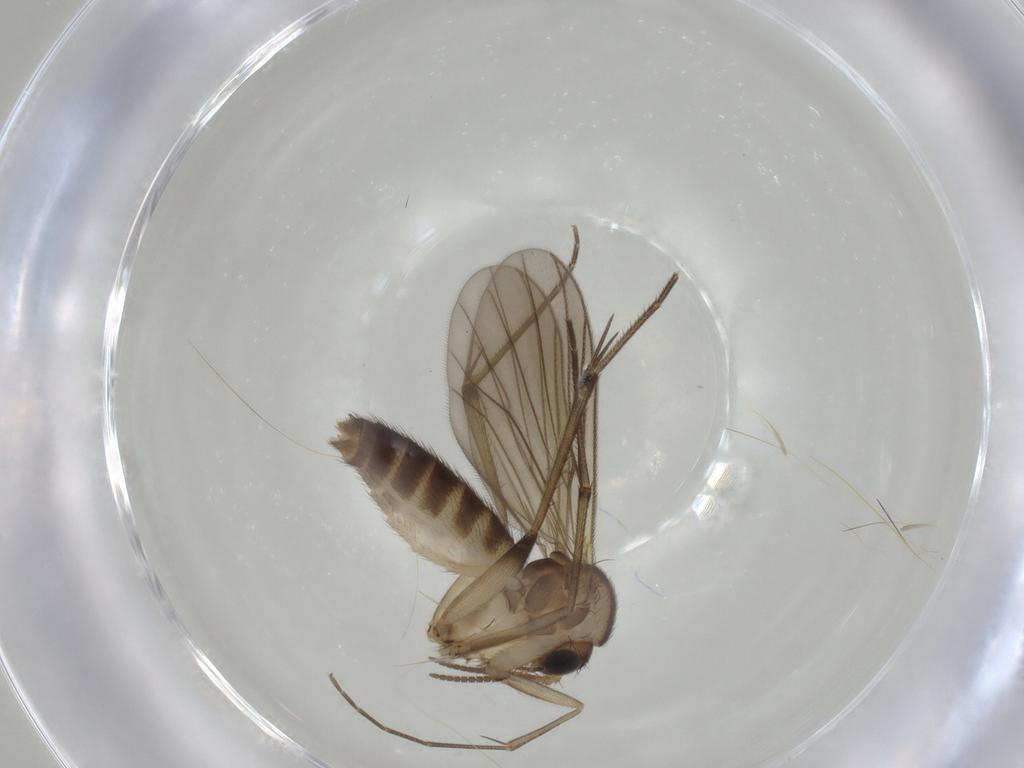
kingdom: Animalia
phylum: Arthropoda
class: Insecta
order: Diptera
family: Mycetophilidae
